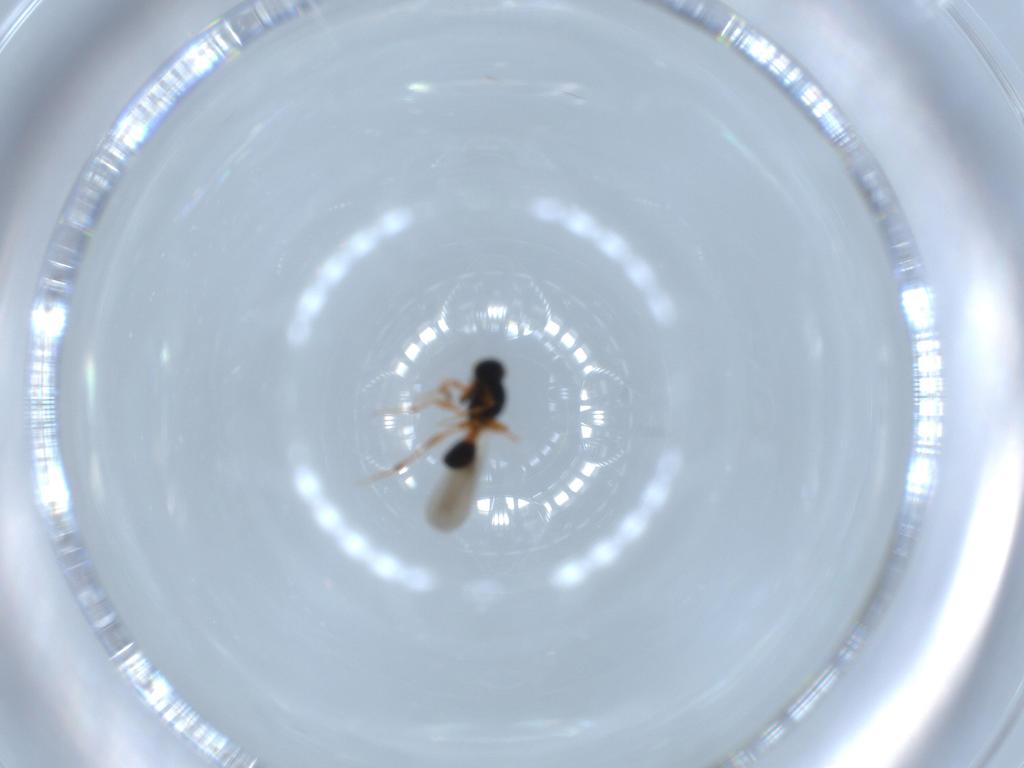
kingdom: Animalia
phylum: Arthropoda
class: Insecta
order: Hymenoptera
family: Platygastridae
